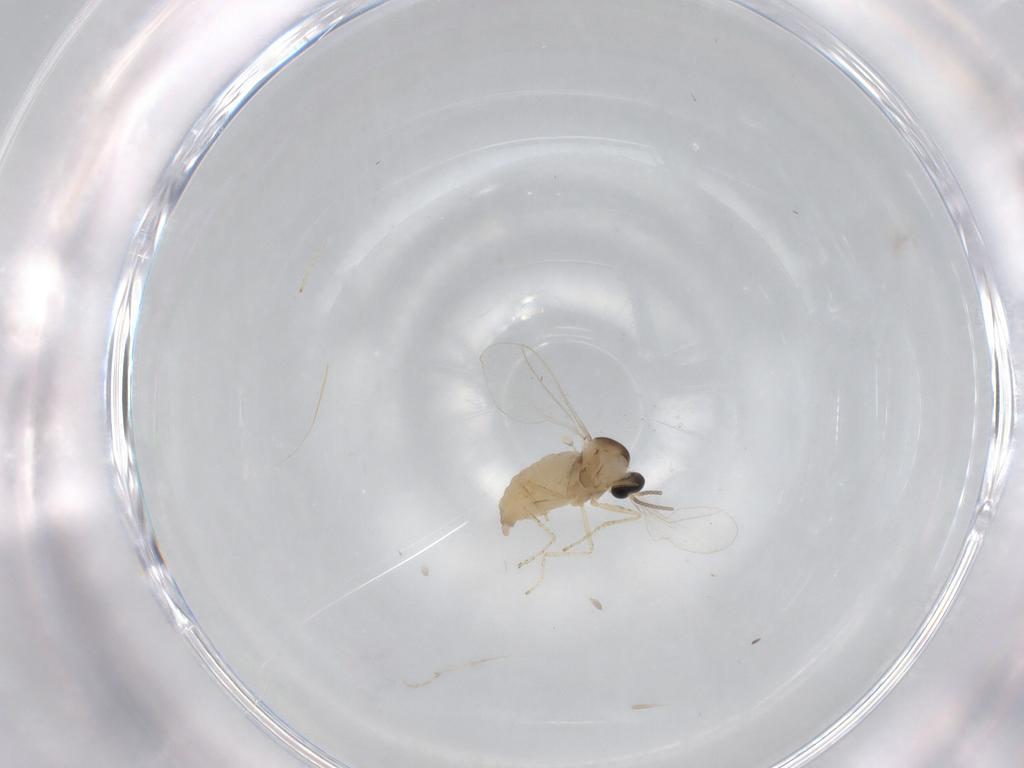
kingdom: Animalia
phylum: Arthropoda
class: Insecta
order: Diptera
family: Cecidomyiidae
